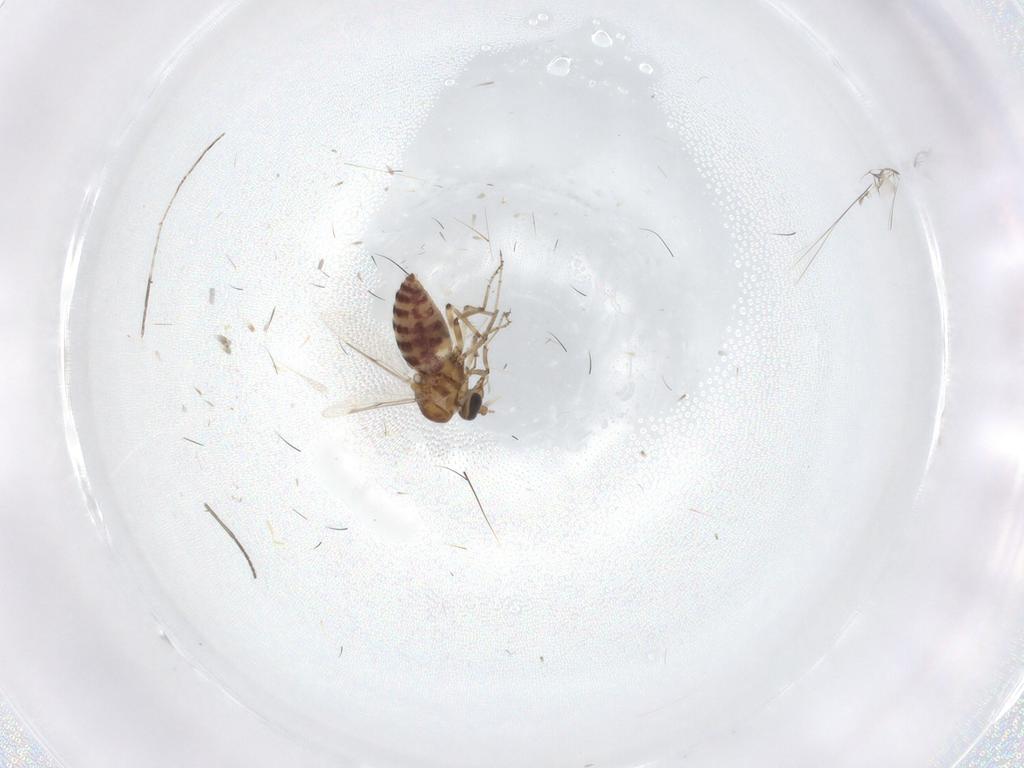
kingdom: Animalia
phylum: Arthropoda
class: Insecta
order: Diptera
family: Ceratopogonidae
